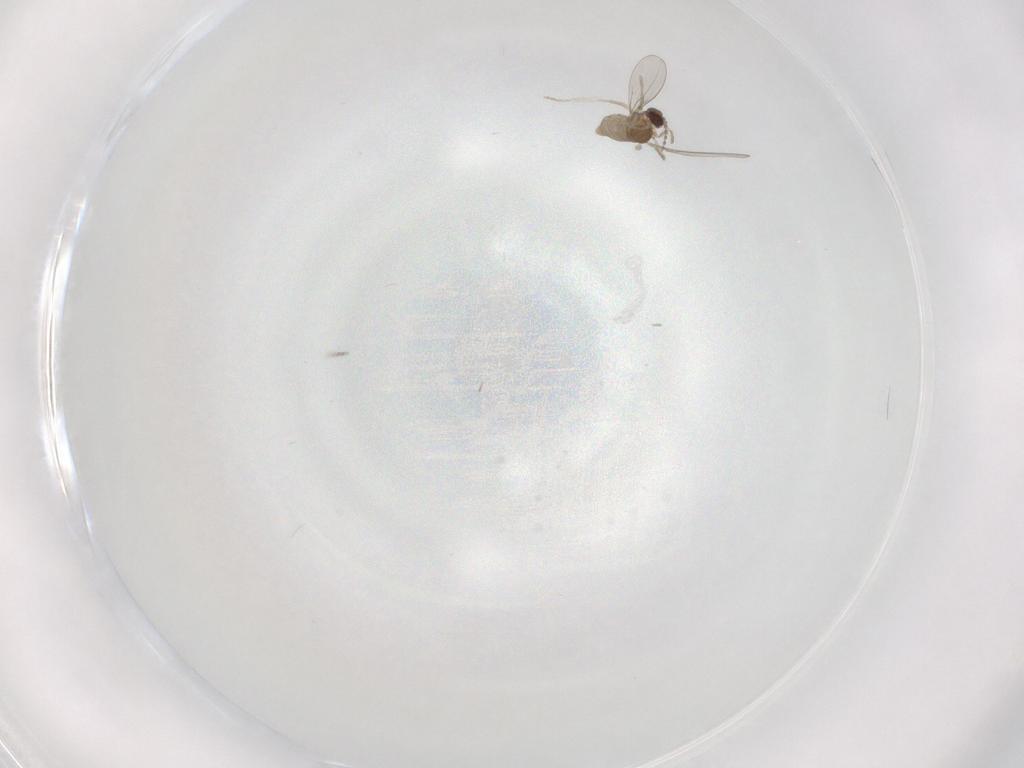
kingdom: Animalia
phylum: Arthropoda
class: Insecta
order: Diptera
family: Cecidomyiidae
